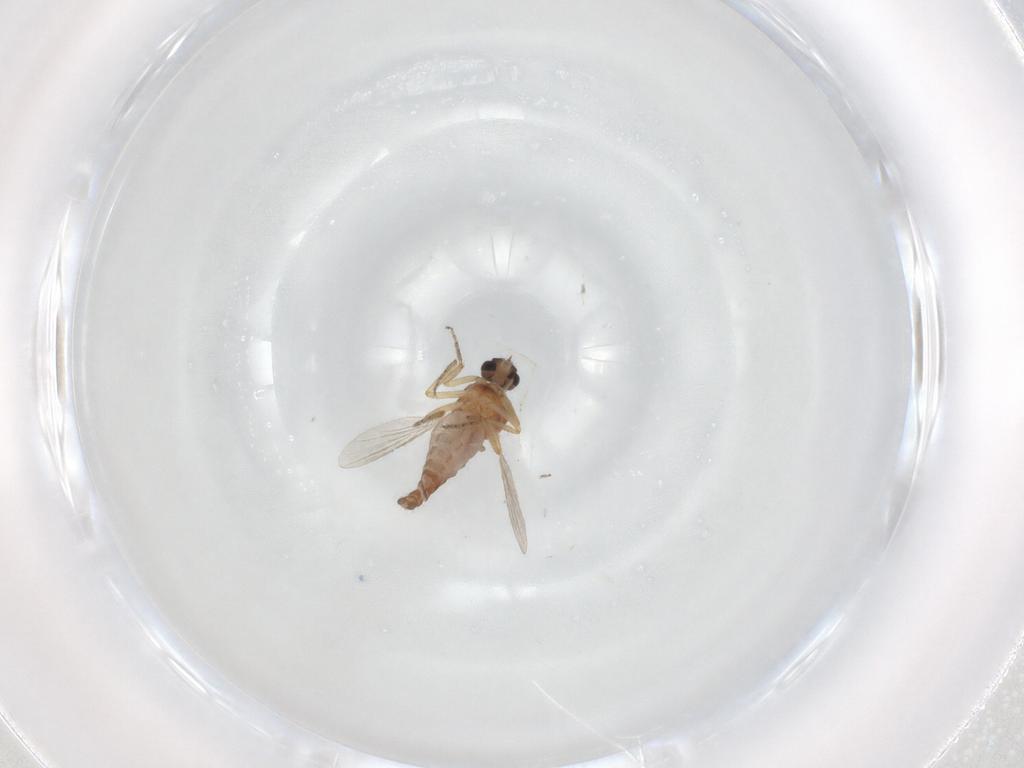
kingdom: Animalia
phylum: Arthropoda
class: Insecta
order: Diptera
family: Ceratopogonidae
